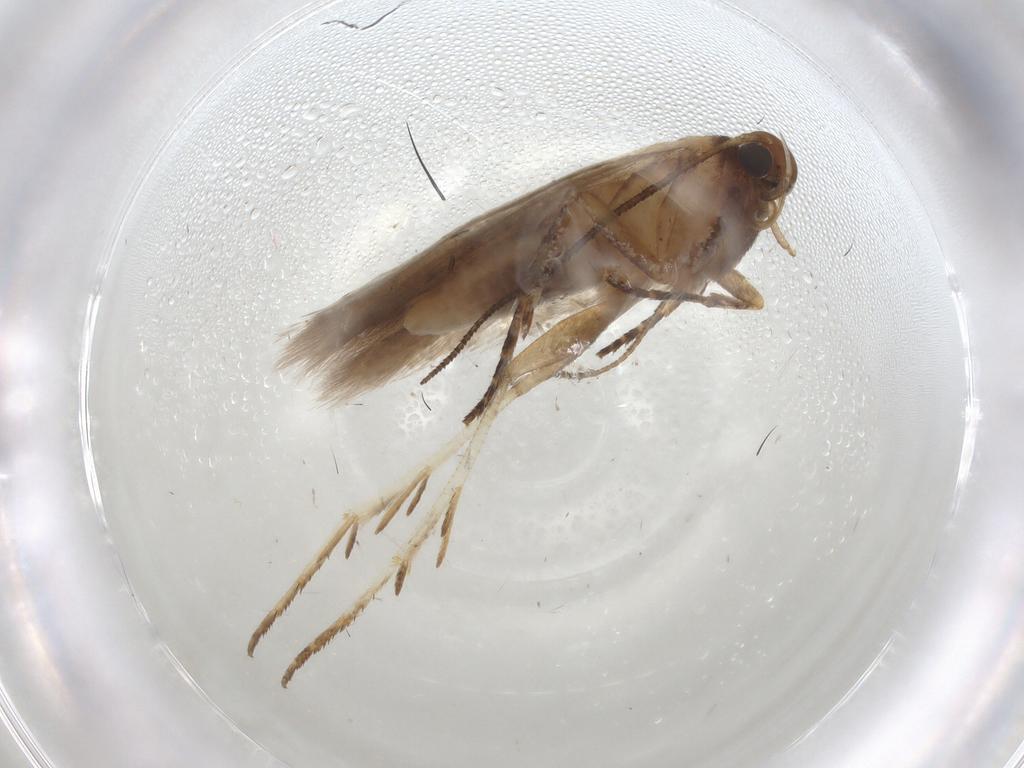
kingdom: Animalia
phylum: Arthropoda
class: Insecta
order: Lepidoptera
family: Gelechiidae
